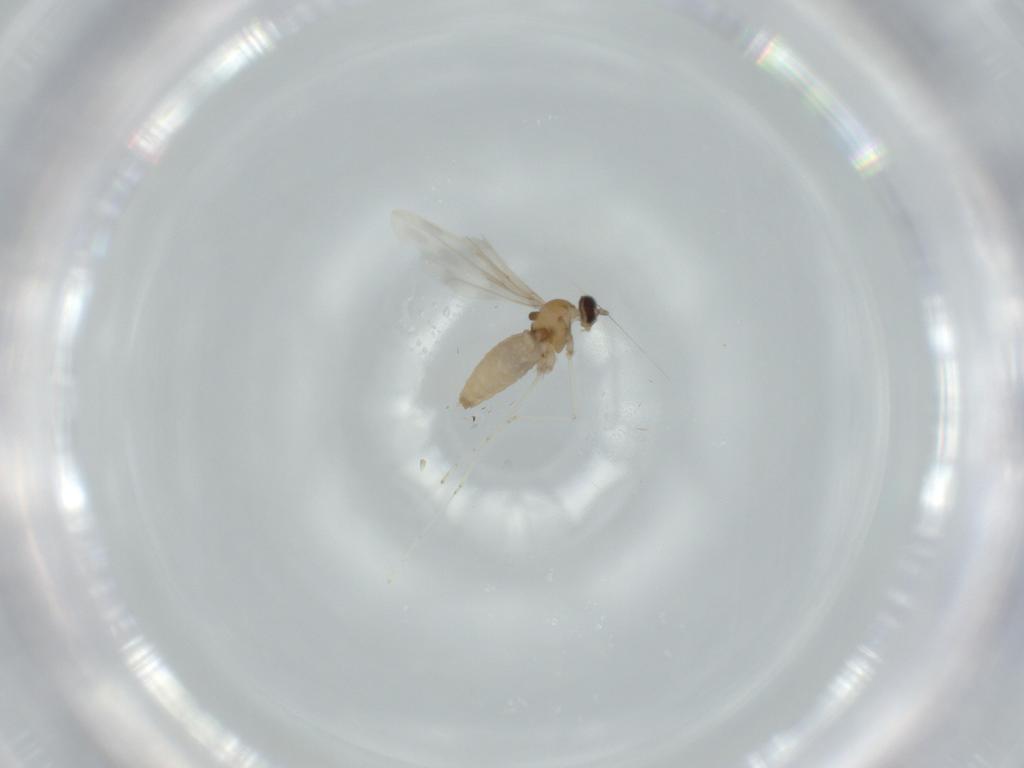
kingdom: Animalia
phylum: Arthropoda
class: Insecta
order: Diptera
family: Cecidomyiidae
